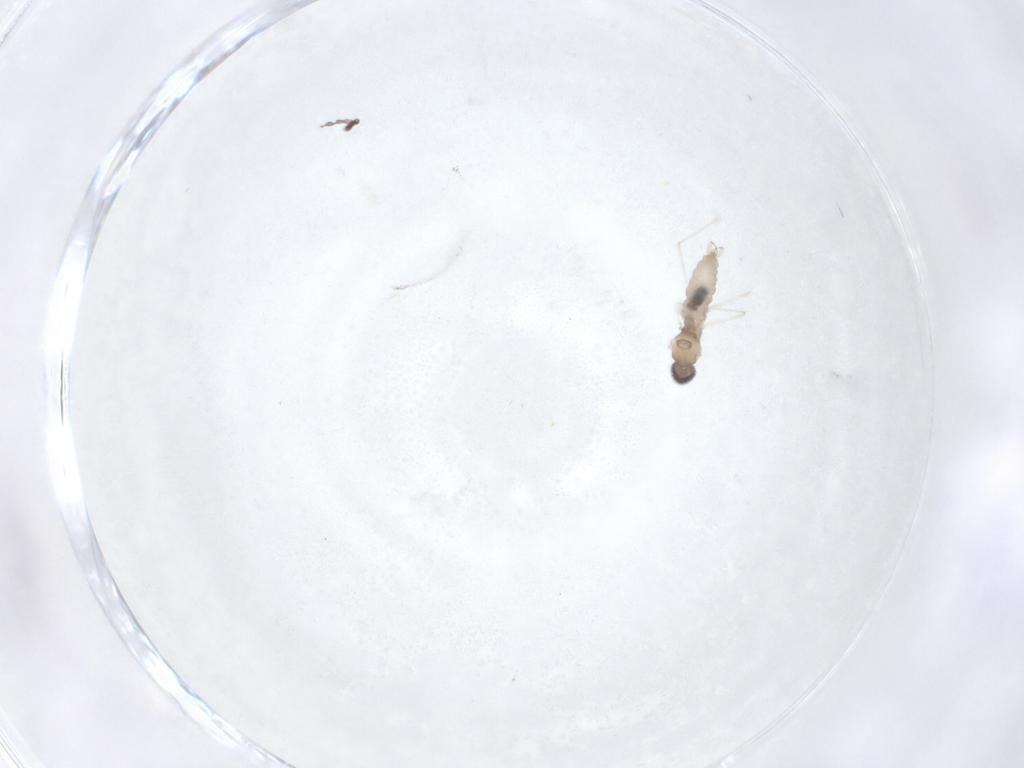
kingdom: Animalia
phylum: Arthropoda
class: Insecta
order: Diptera
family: Cecidomyiidae
